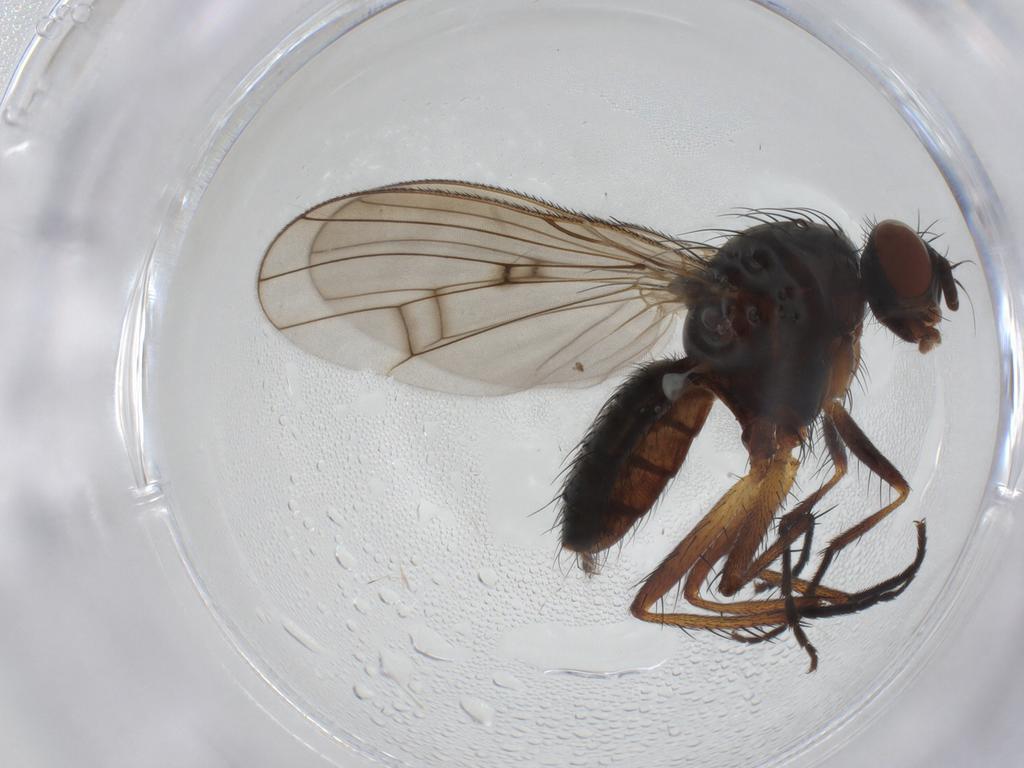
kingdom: Animalia
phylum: Arthropoda
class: Insecta
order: Diptera
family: Anthomyiidae
